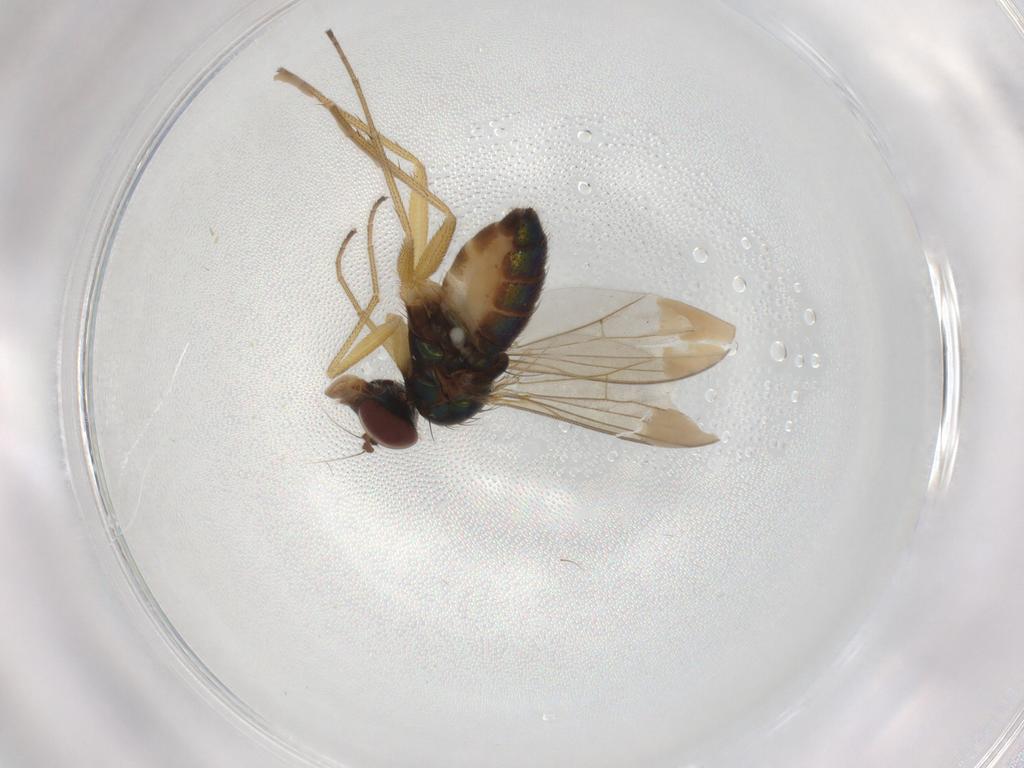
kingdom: Animalia
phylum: Arthropoda
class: Insecta
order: Diptera
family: Dolichopodidae
